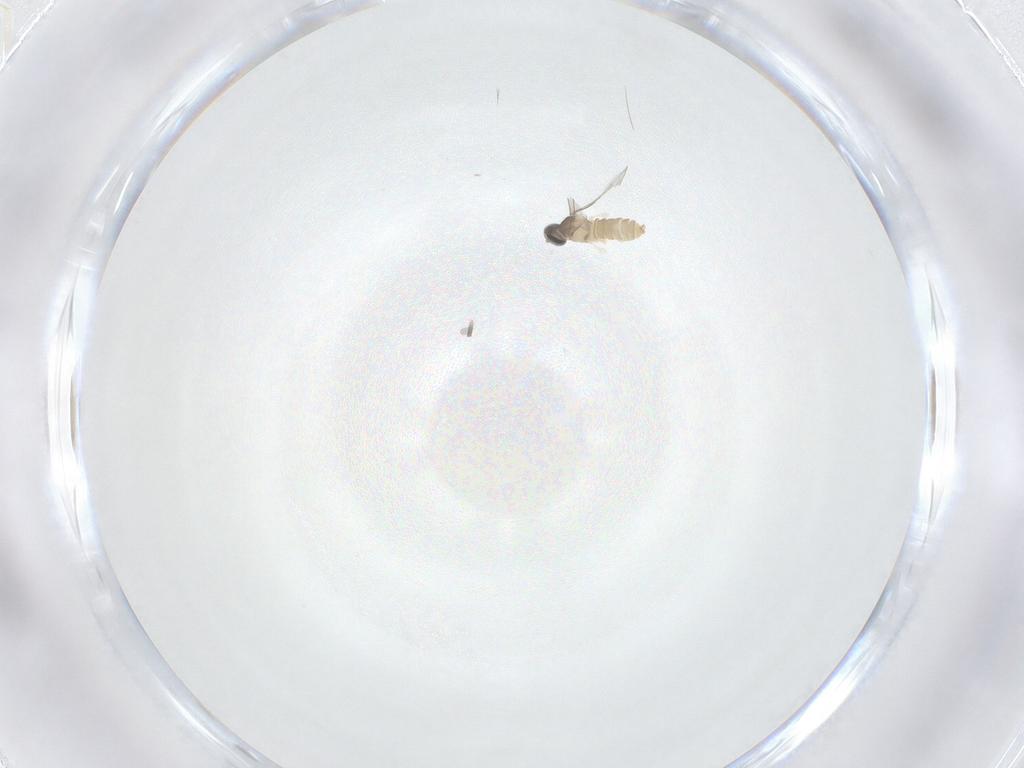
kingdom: Animalia
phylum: Arthropoda
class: Insecta
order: Diptera
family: Cecidomyiidae
